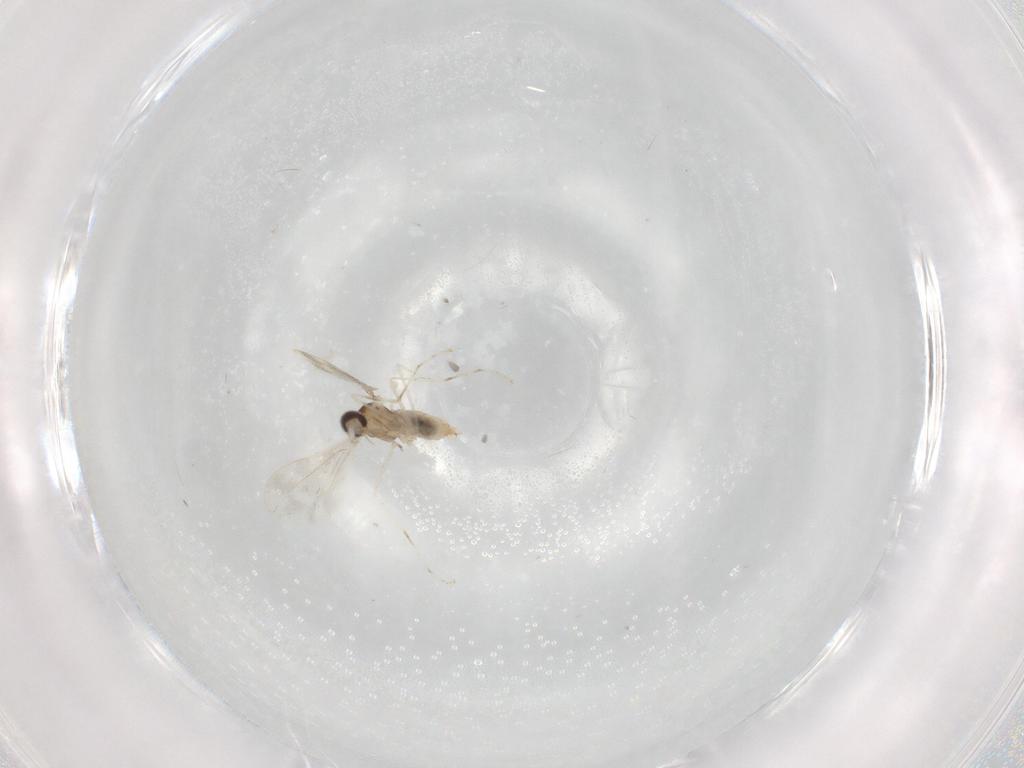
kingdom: Animalia
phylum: Arthropoda
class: Insecta
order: Diptera
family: Cecidomyiidae
